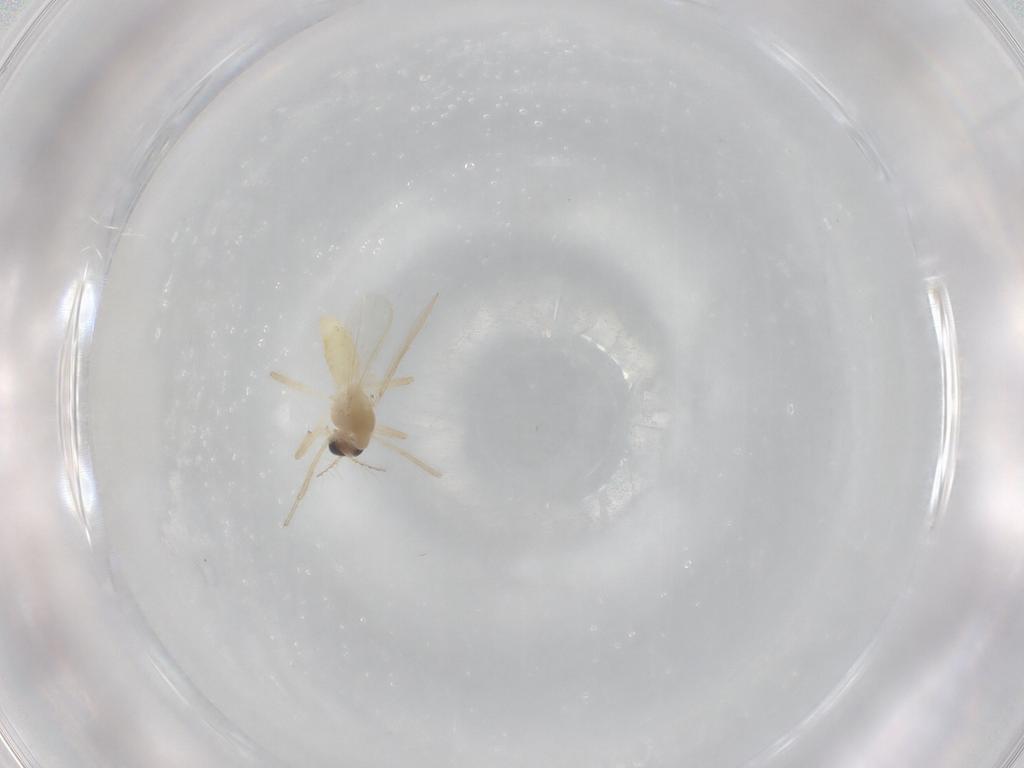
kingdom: Animalia
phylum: Arthropoda
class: Insecta
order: Diptera
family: Chironomidae
